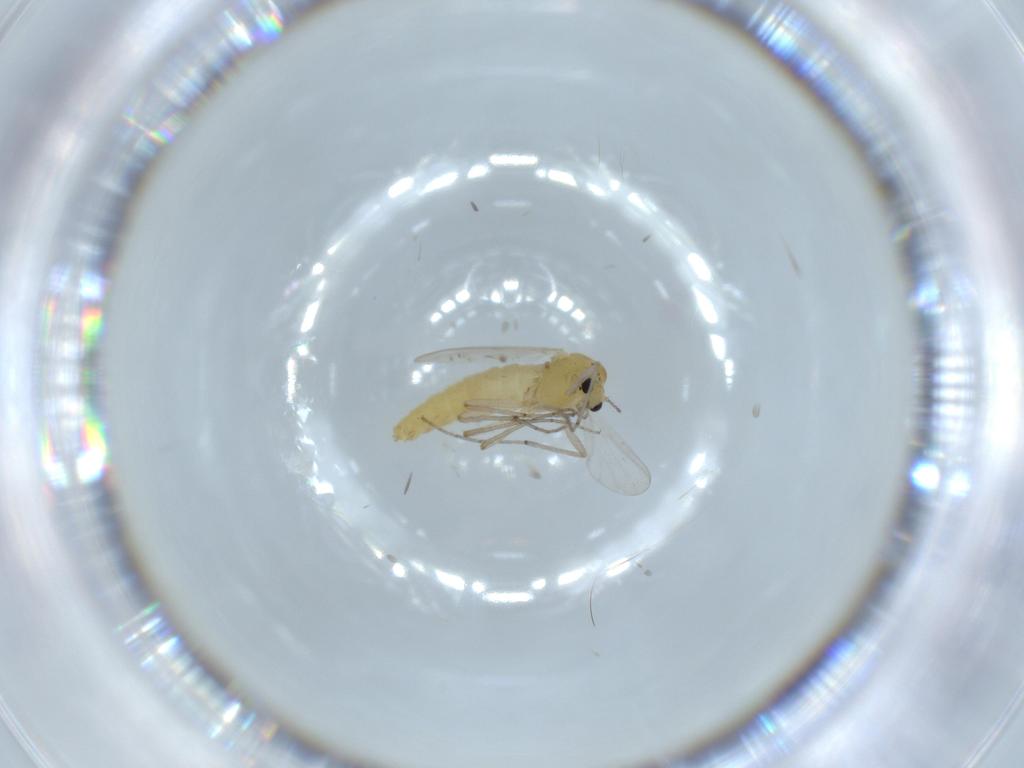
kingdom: Animalia
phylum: Arthropoda
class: Insecta
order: Diptera
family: Chironomidae
